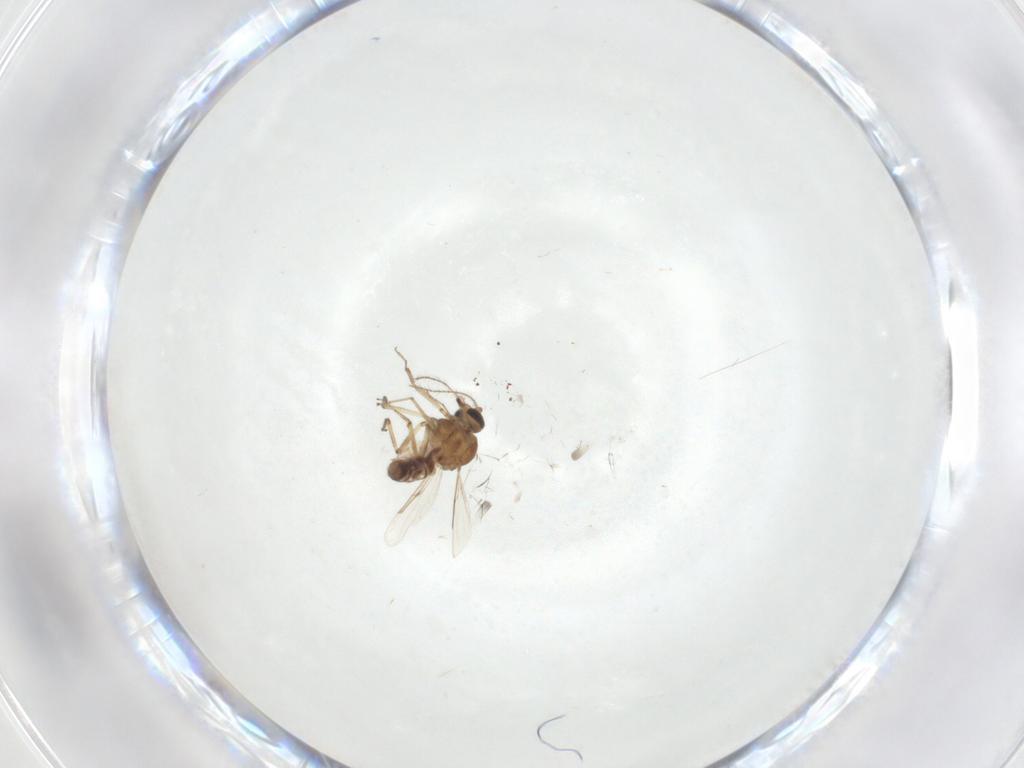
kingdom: Animalia
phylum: Arthropoda
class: Insecta
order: Diptera
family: Ceratopogonidae
